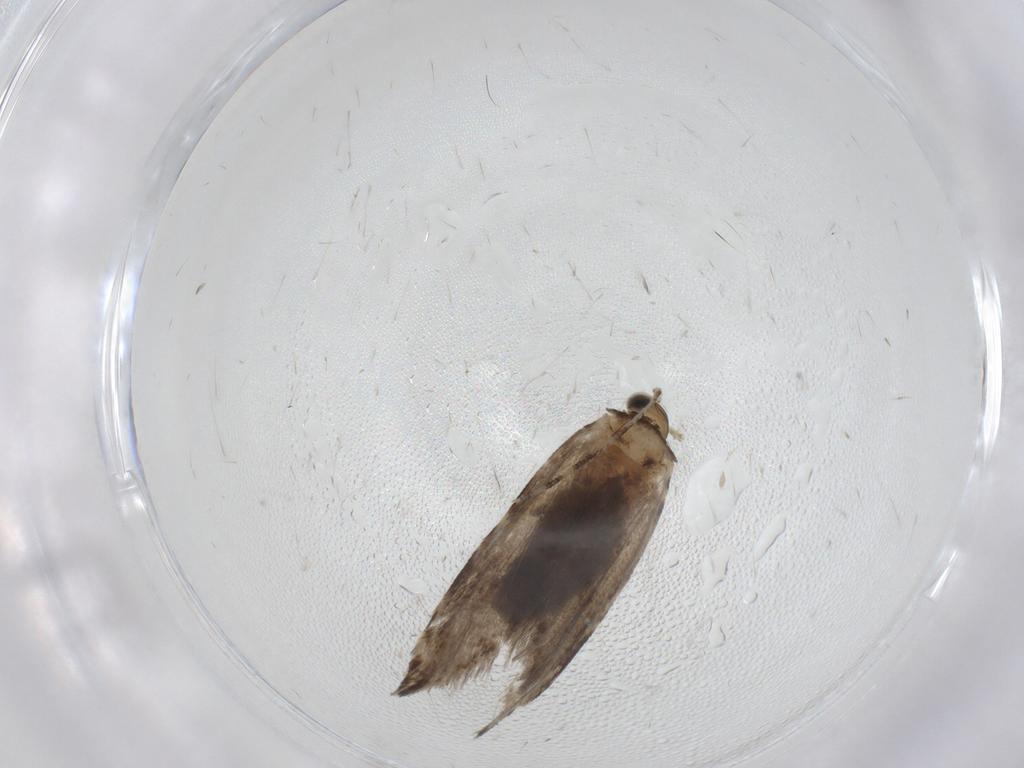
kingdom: Animalia
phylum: Arthropoda
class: Insecta
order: Lepidoptera
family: Tineidae
